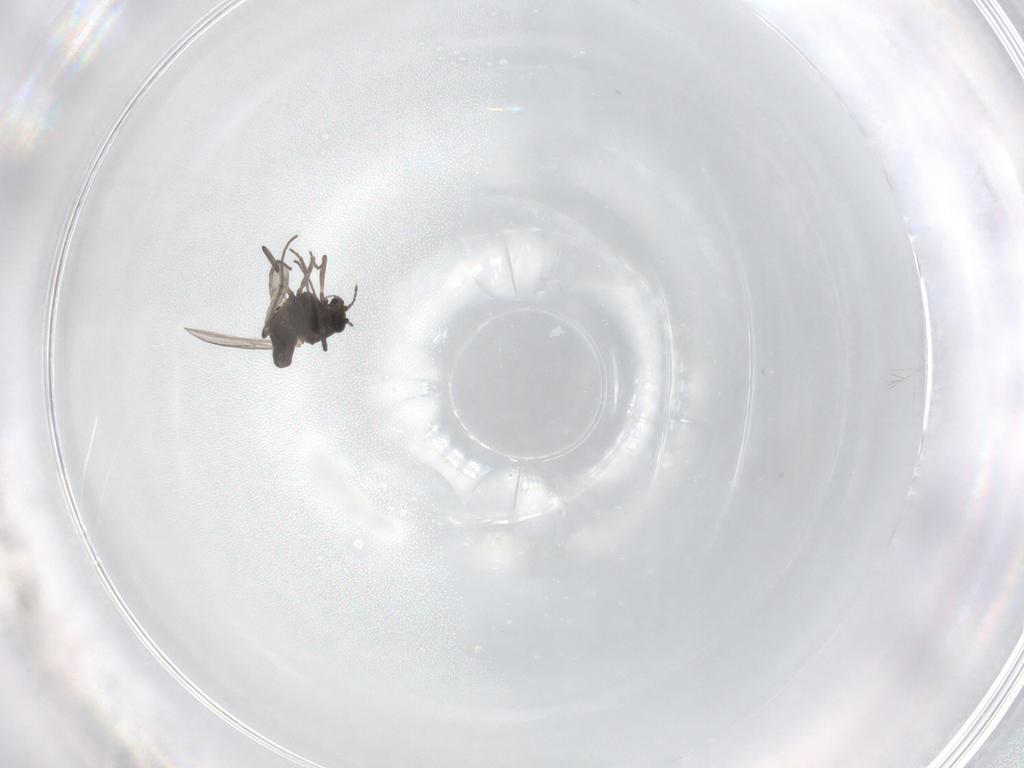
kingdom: Animalia
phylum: Arthropoda
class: Insecta
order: Diptera
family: Chironomidae
